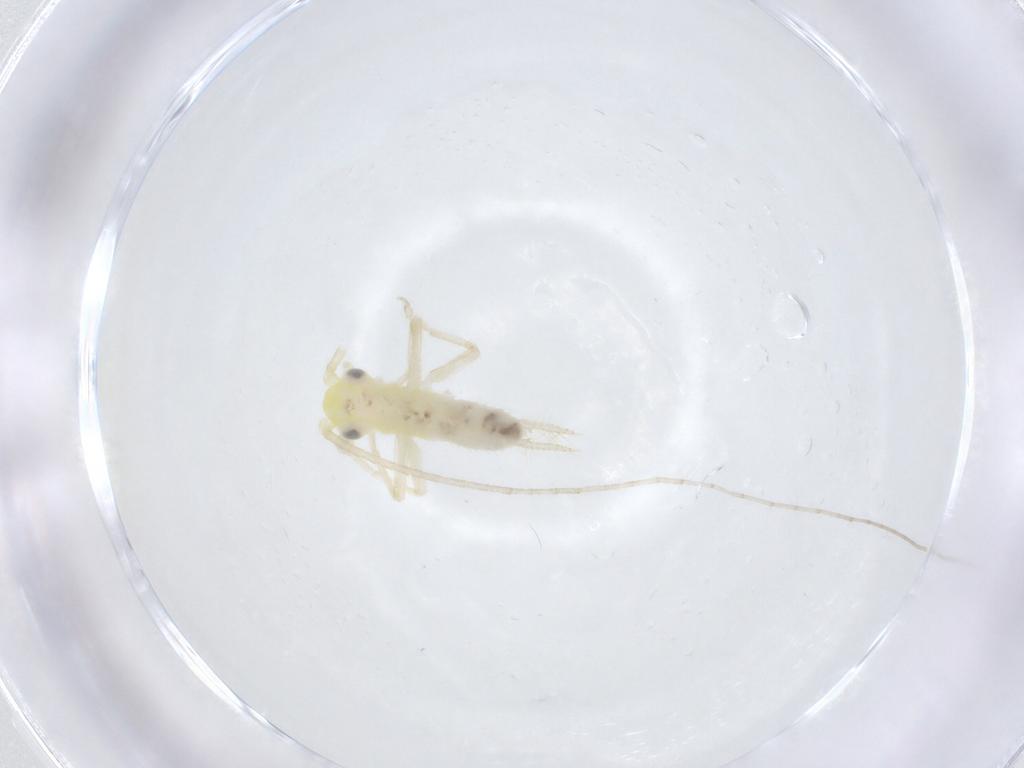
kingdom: Animalia
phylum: Arthropoda
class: Insecta
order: Orthoptera
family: Trigonidiidae
